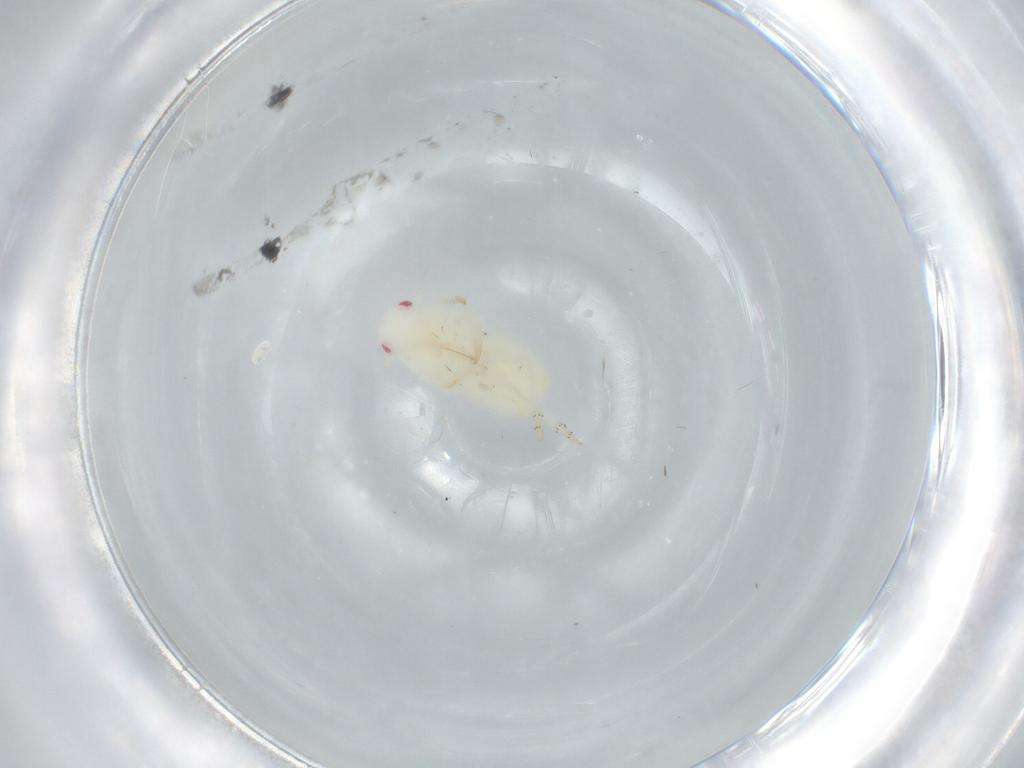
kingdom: Animalia
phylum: Arthropoda
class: Insecta
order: Hemiptera
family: Flatidae
